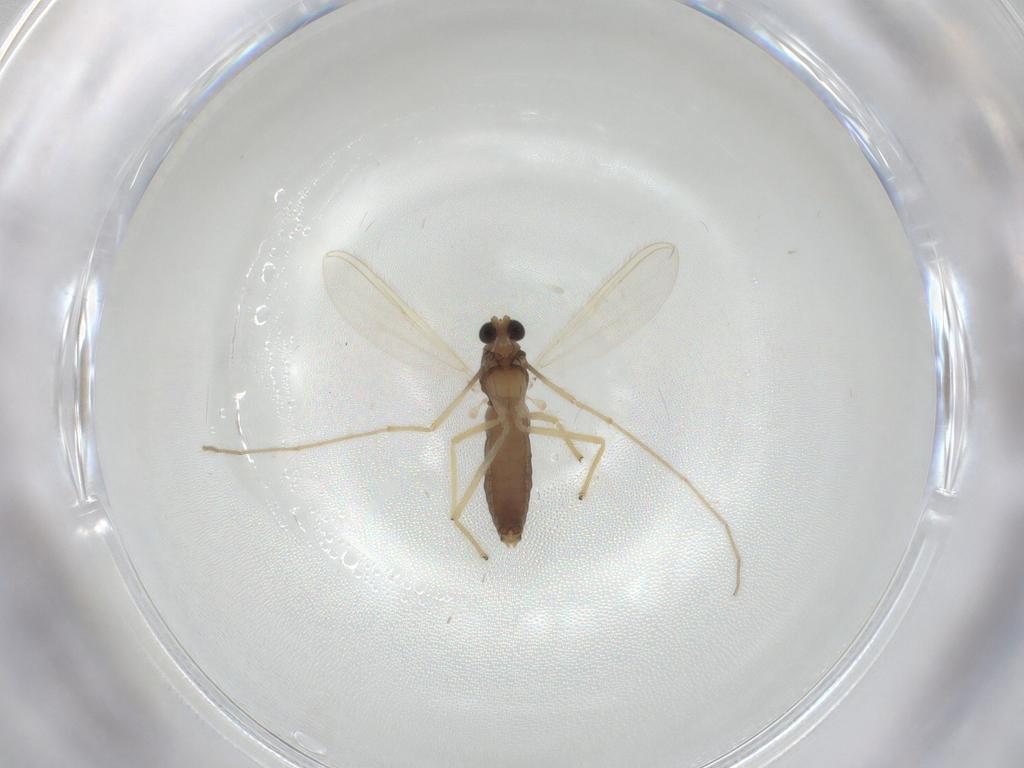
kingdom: Animalia
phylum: Arthropoda
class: Insecta
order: Diptera
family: Chironomidae
